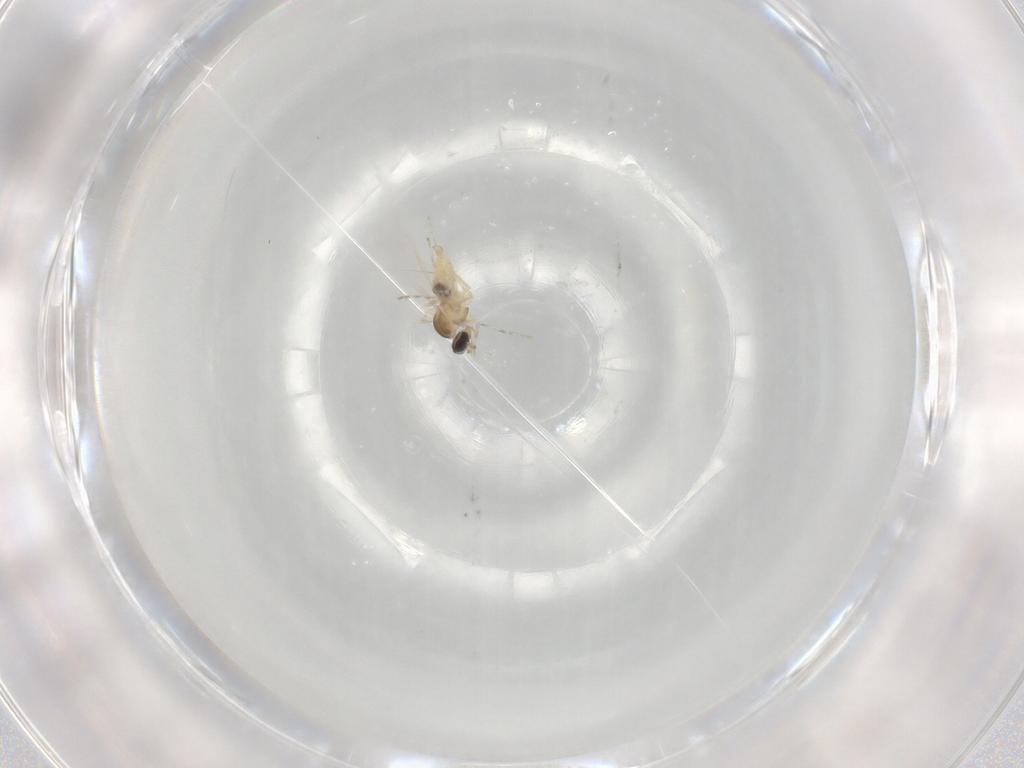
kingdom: Animalia
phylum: Arthropoda
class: Insecta
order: Diptera
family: Cecidomyiidae
